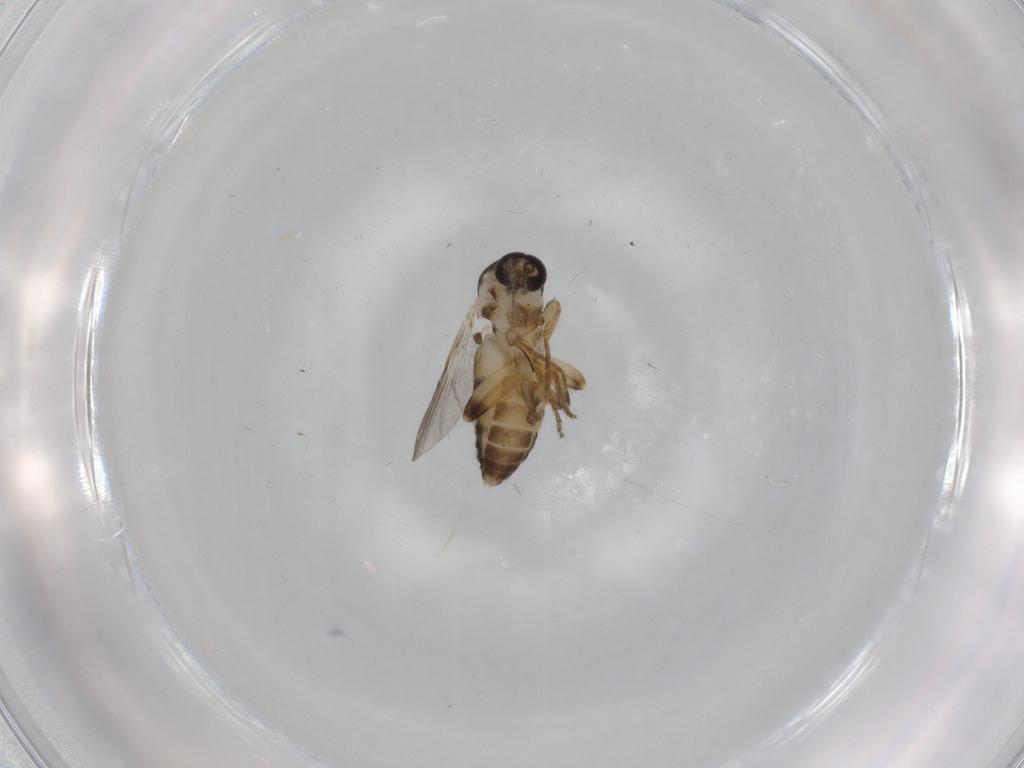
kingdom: Animalia
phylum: Arthropoda
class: Insecta
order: Diptera
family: Ceratopogonidae
